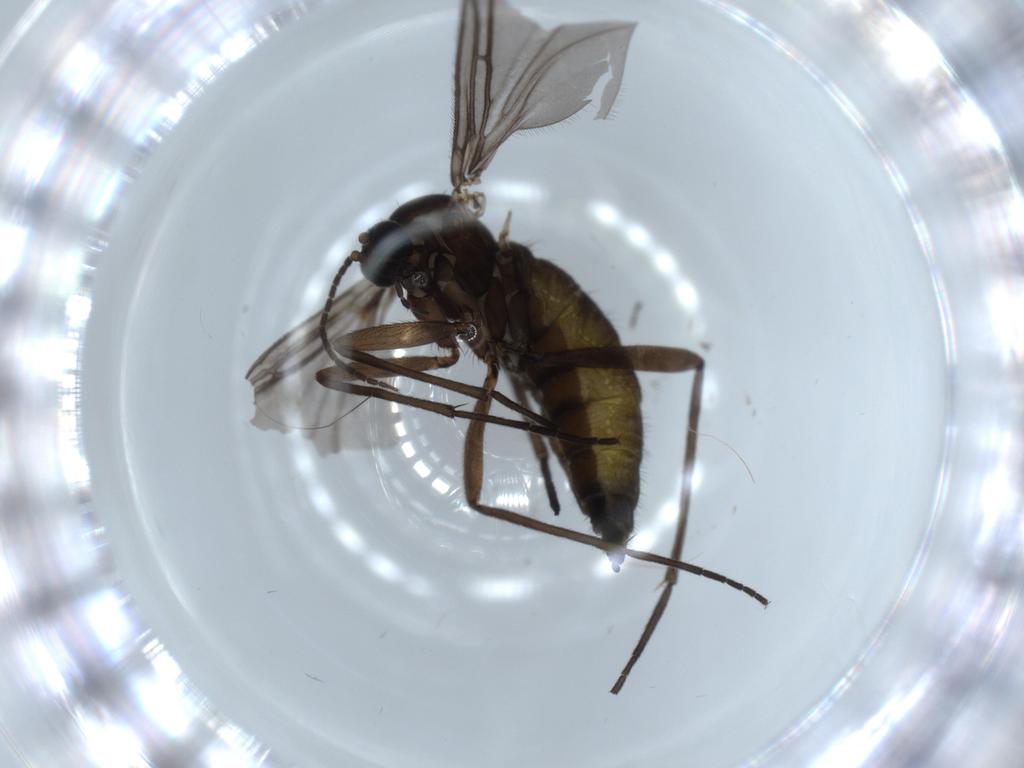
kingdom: Animalia
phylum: Arthropoda
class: Insecta
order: Diptera
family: Sciaridae
